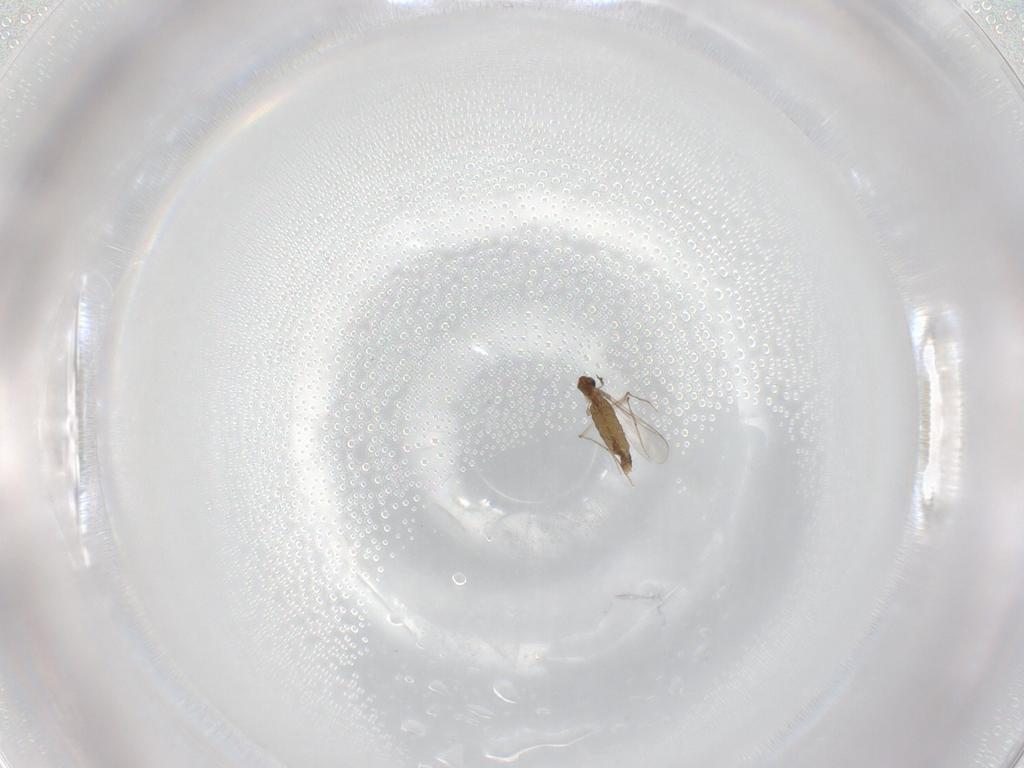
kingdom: Animalia
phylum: Arthropoda
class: Insecta
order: Diptera
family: Chironomidae
